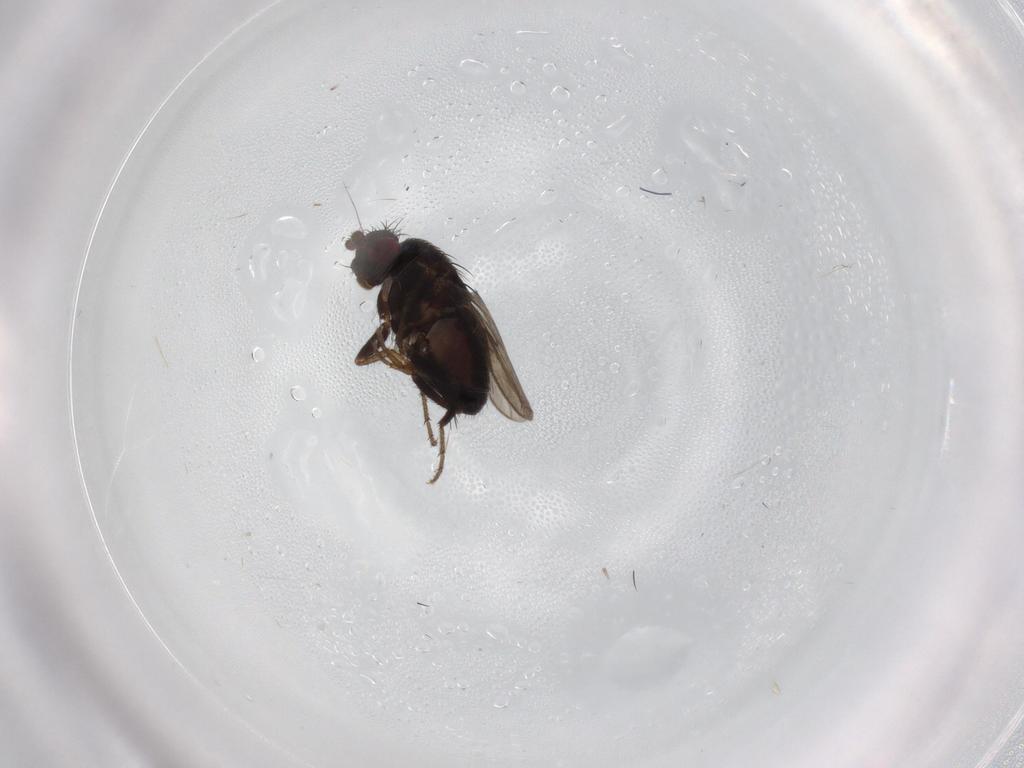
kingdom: Animalia
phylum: Arthropoda
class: Insecta
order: Diptera
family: Sphaeroceridae
